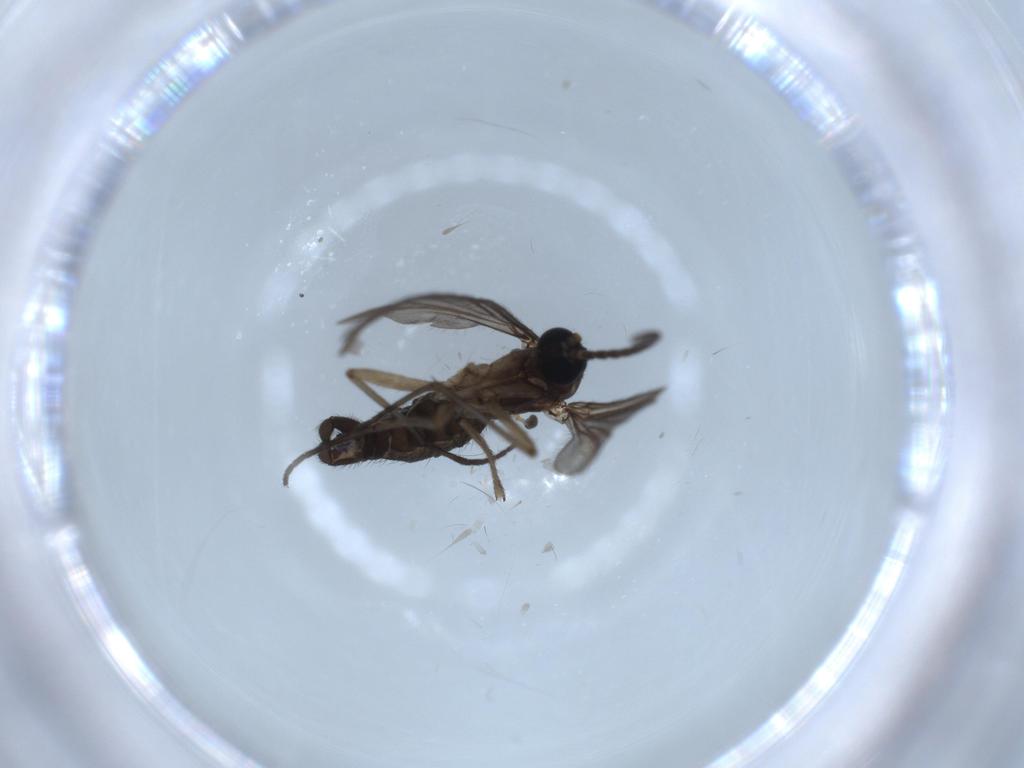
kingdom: Animalia
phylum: Arthropoda
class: Insecta
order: Diptera
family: Sciaridae
